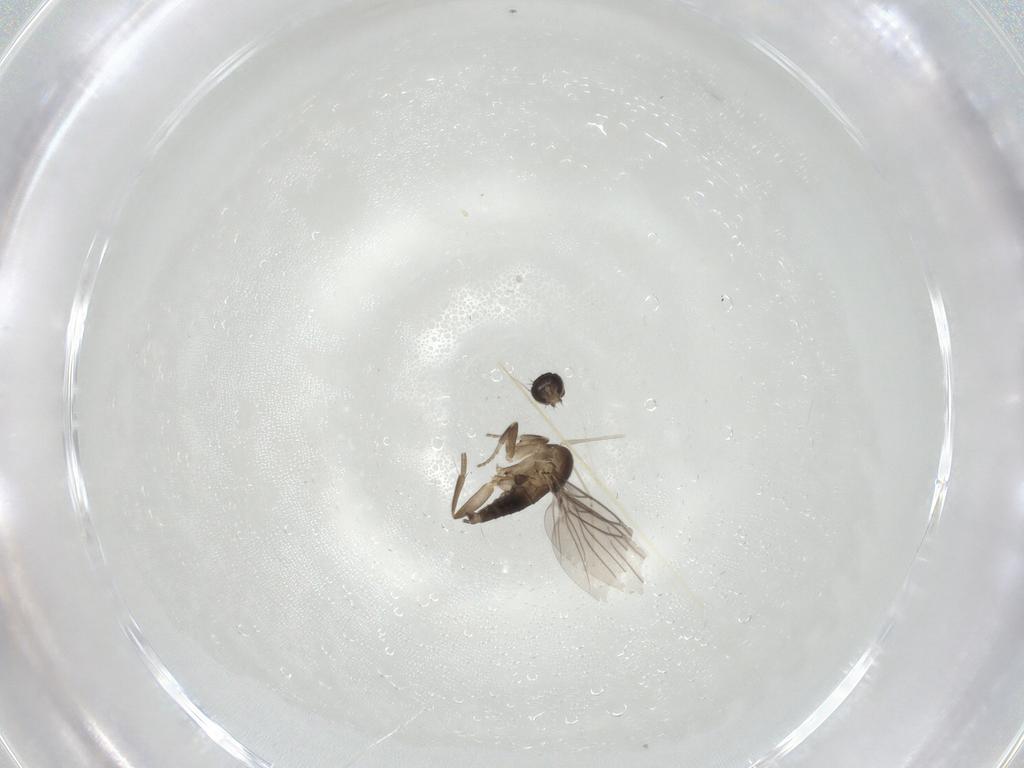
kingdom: Animalia
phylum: Arthropoda
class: Insecta
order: Diptera
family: Phoridae
